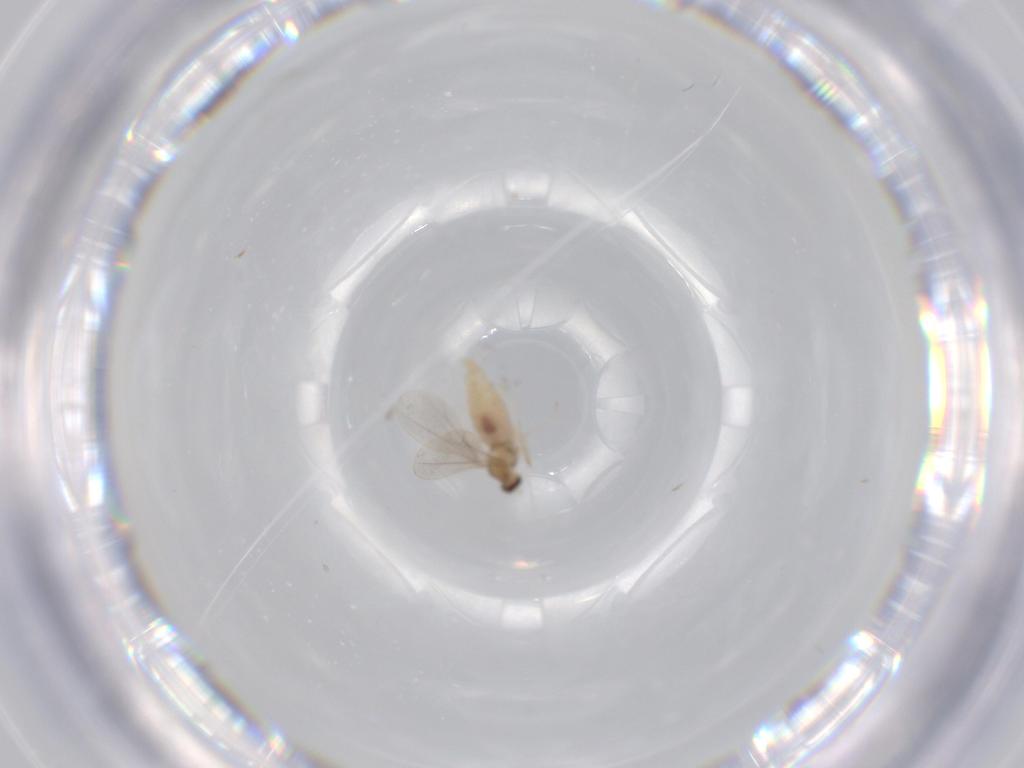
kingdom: Animalia
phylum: Arthropoda
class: Insecta
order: Diptera
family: Cecidomyiidae
